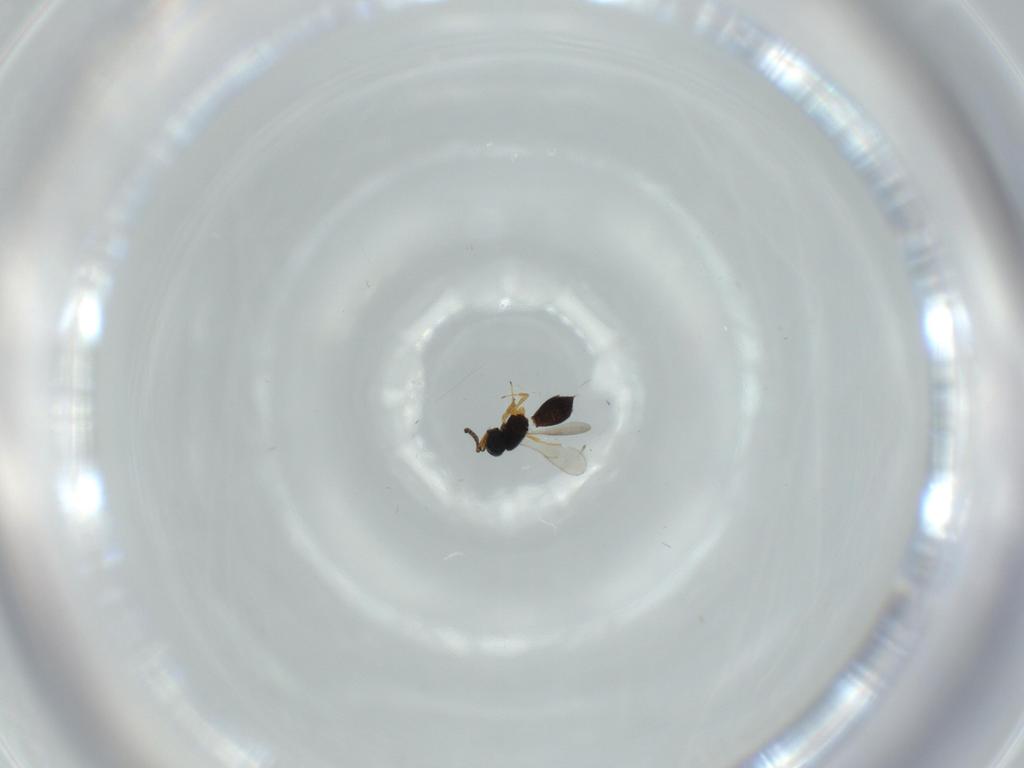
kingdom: Animalia
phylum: Arthropoda
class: Insecta
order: Hymenoptera
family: Scelionidae
